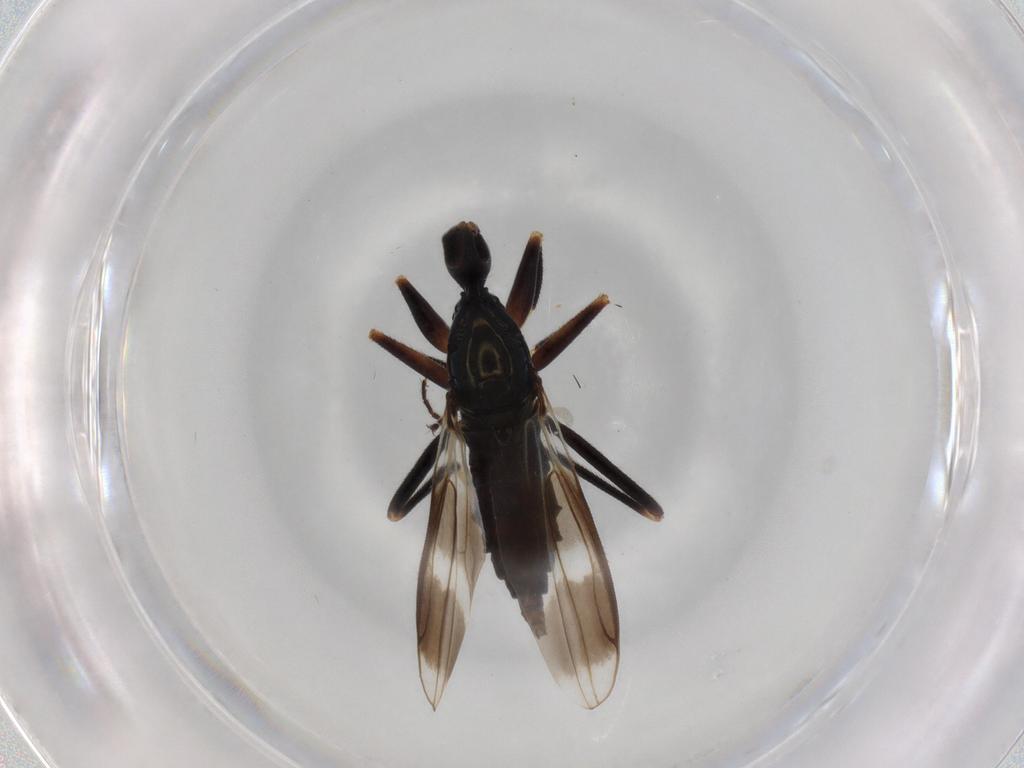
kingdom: Animalia
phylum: Arthropoda
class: Insecta
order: Diptera
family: Hybotidae
